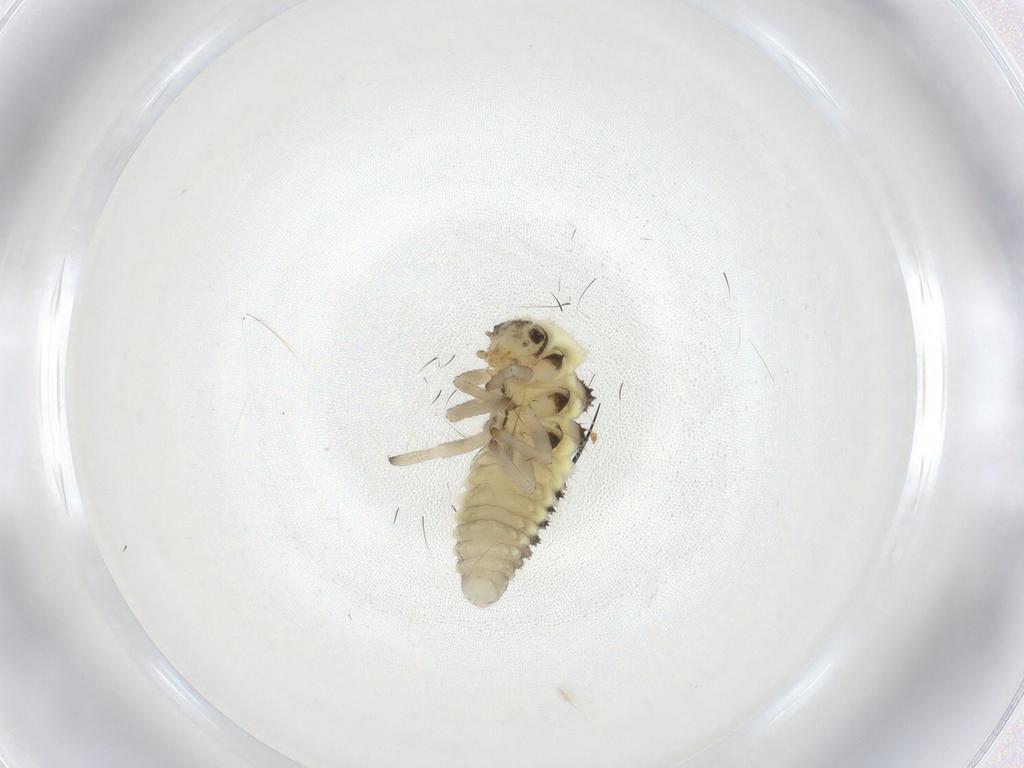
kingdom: Animalia
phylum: Arthropoda
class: Insecta
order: Coleoptera
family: Coccinellidae
